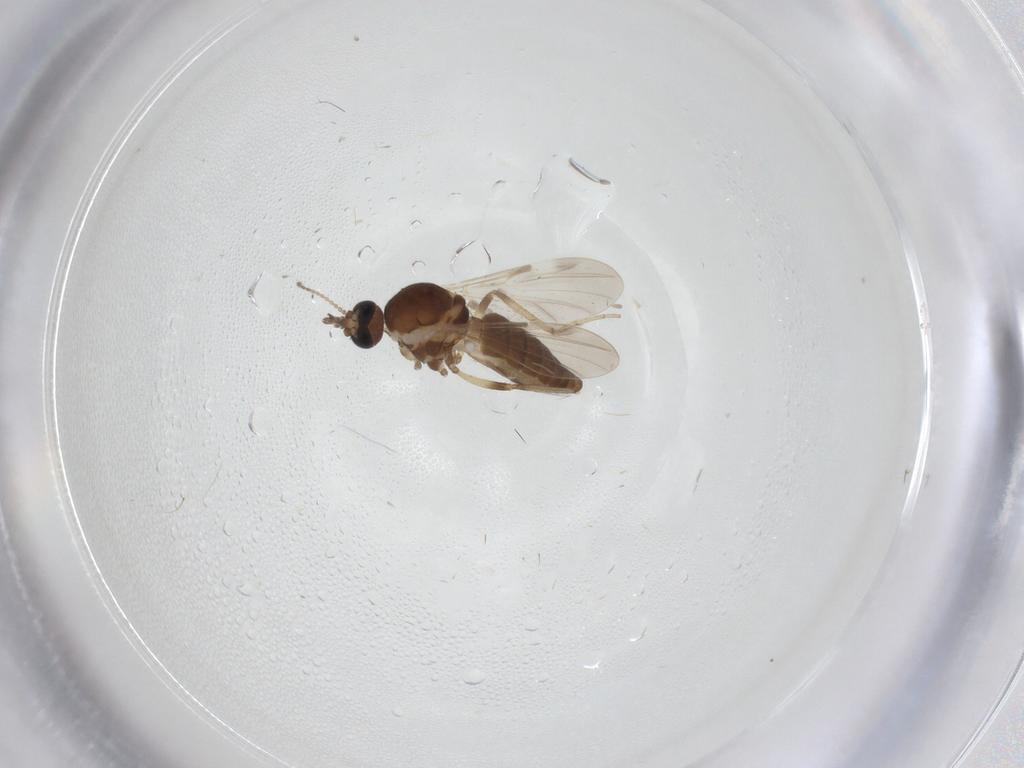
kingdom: Animalia
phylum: Arthropoda
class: Insecta
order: Diptera
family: Ceratopogonidae
